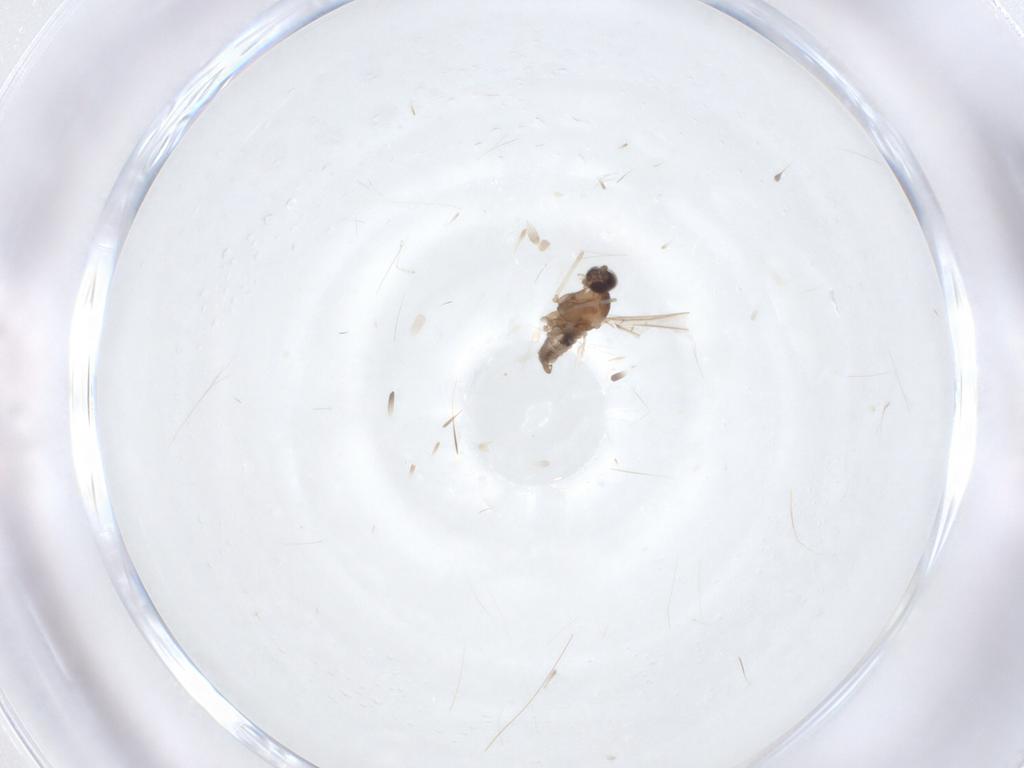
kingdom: Animalia
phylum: Arthropoda
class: Insecta
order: Diptera
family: Cecidomyiidae
